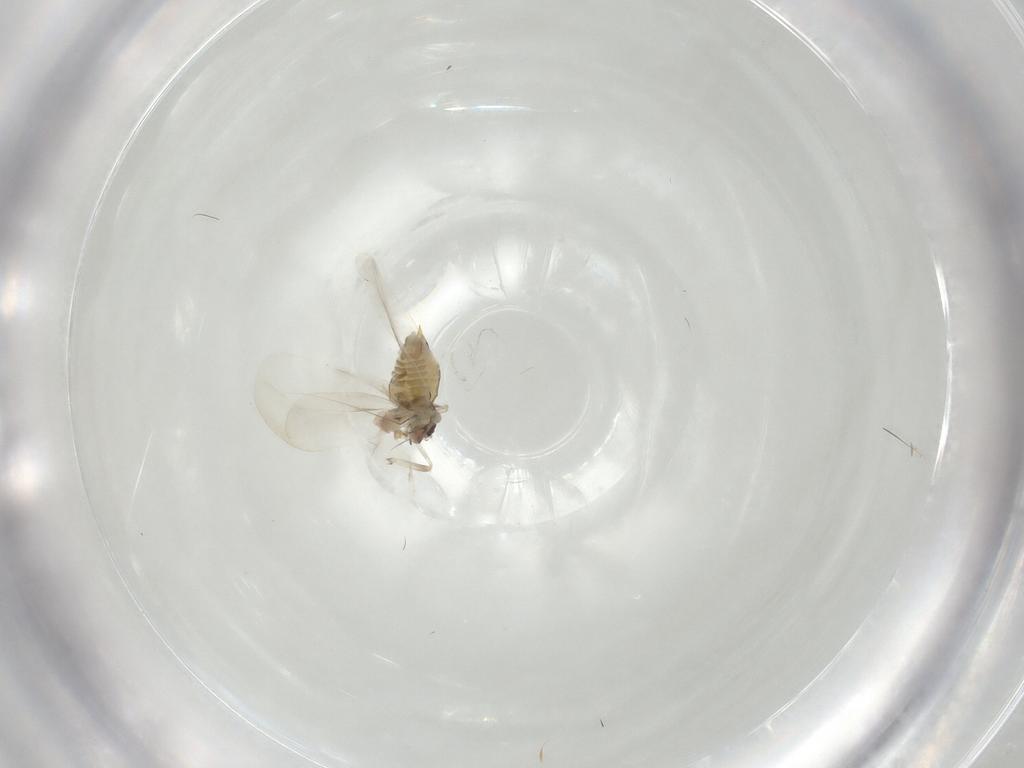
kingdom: Animalia
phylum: Arthropoda
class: Insecta
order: Hemiptera
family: Aleyrodidae
